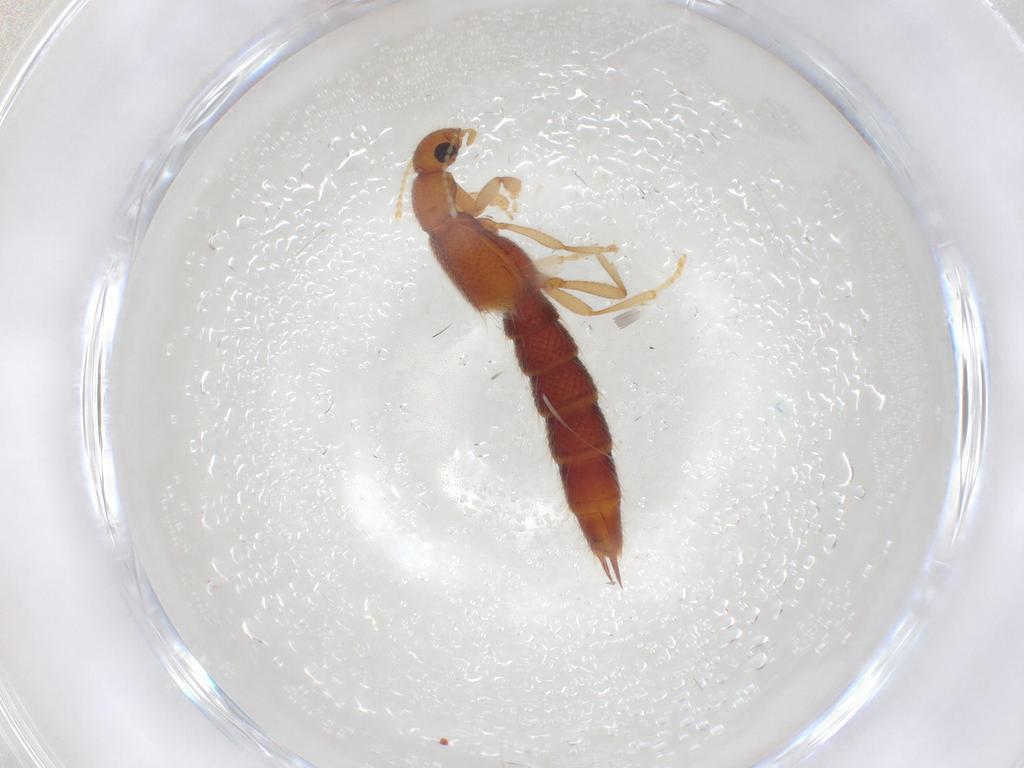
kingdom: Animalia
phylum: Arthropoda
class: Insecta
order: Coleoptera
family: Staphylinidae
